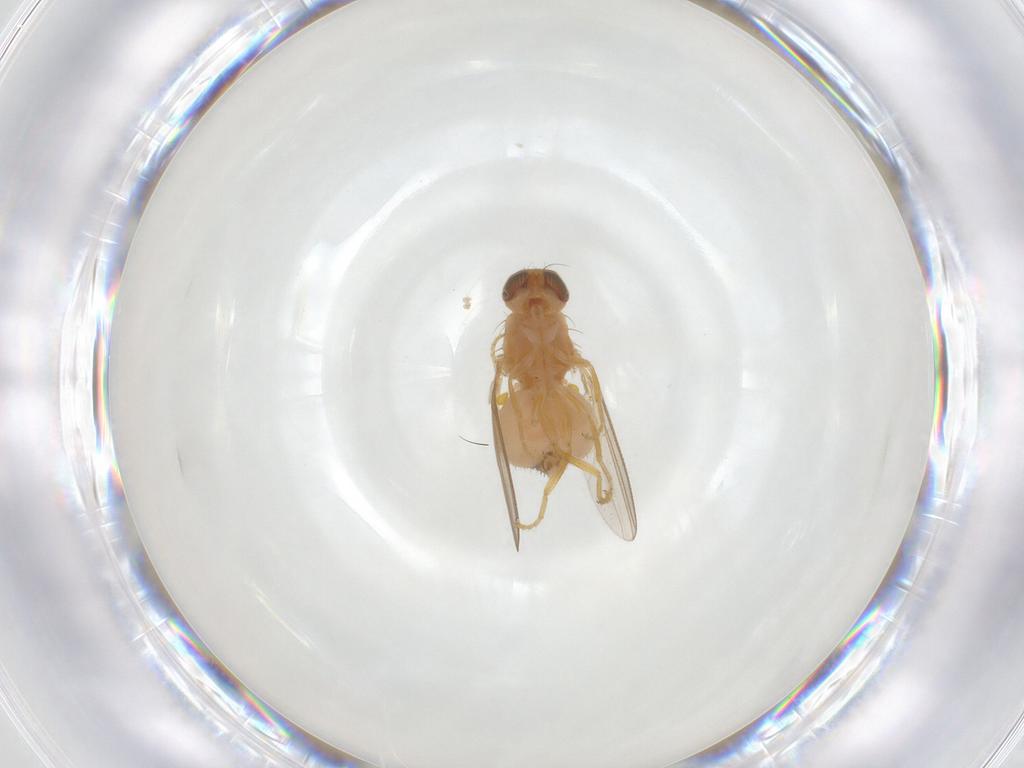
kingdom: Animalia
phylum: Arthropoda
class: Insecta
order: Diptera
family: Chyromyidae
